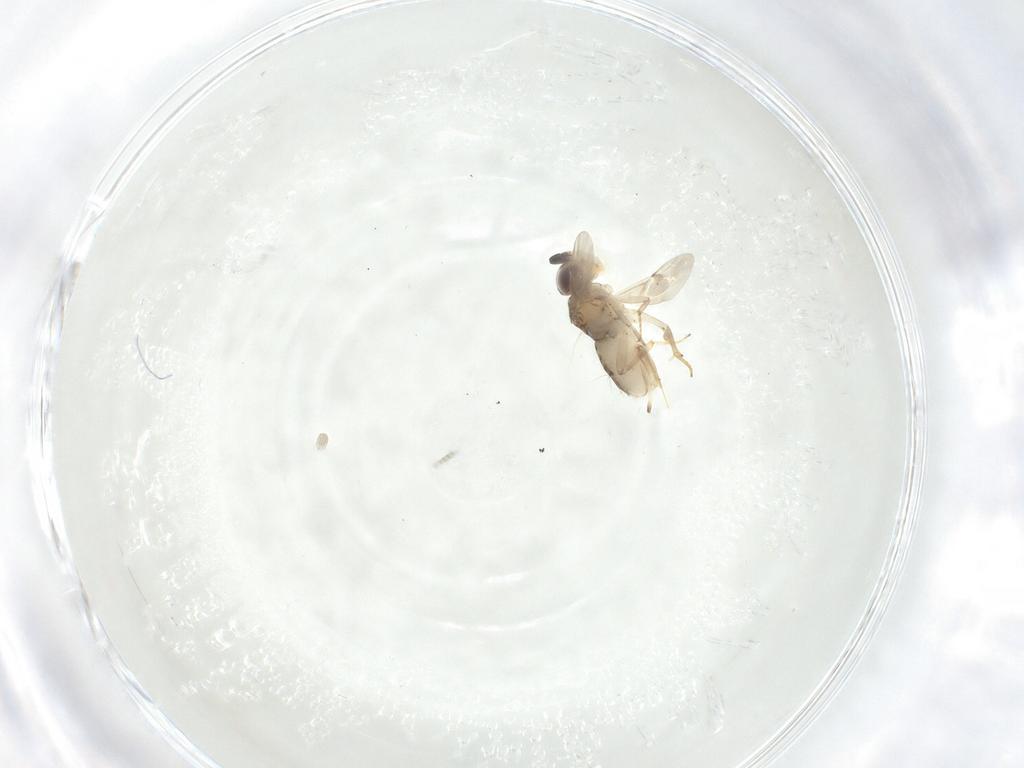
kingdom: Animalia
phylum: Arthropoda
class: Insecta
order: Hymenoptera
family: Encyrtidae
